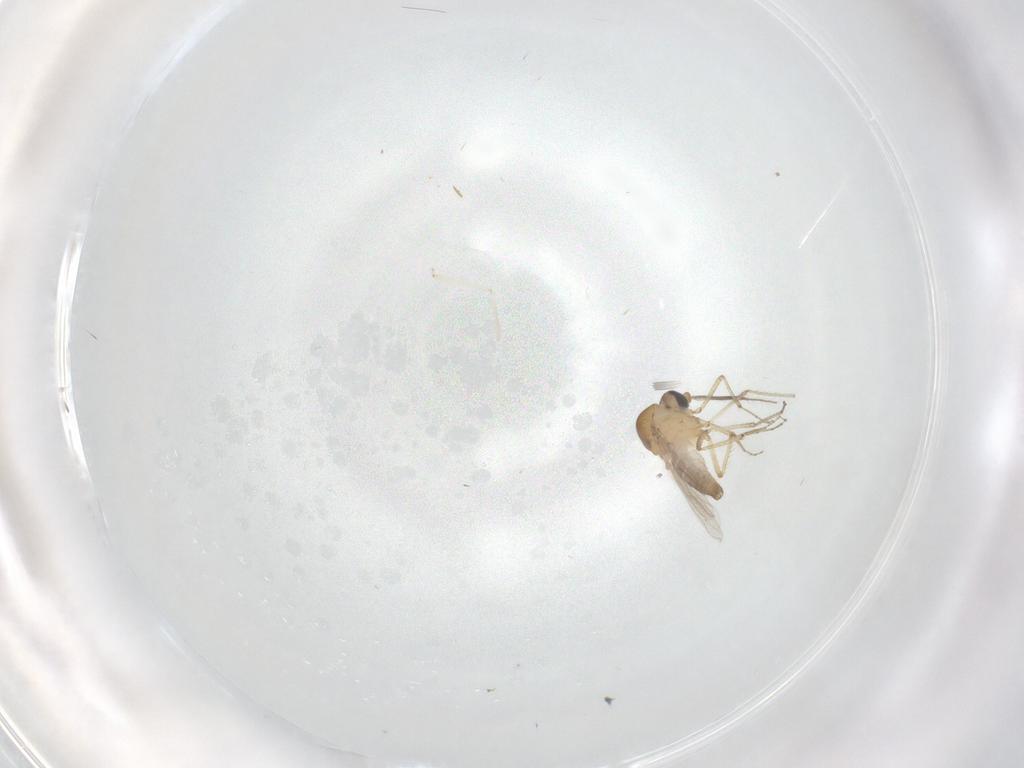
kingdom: Animalia
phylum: Arthropoda
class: Insecta
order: Diptera
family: Ceratopogonidae
